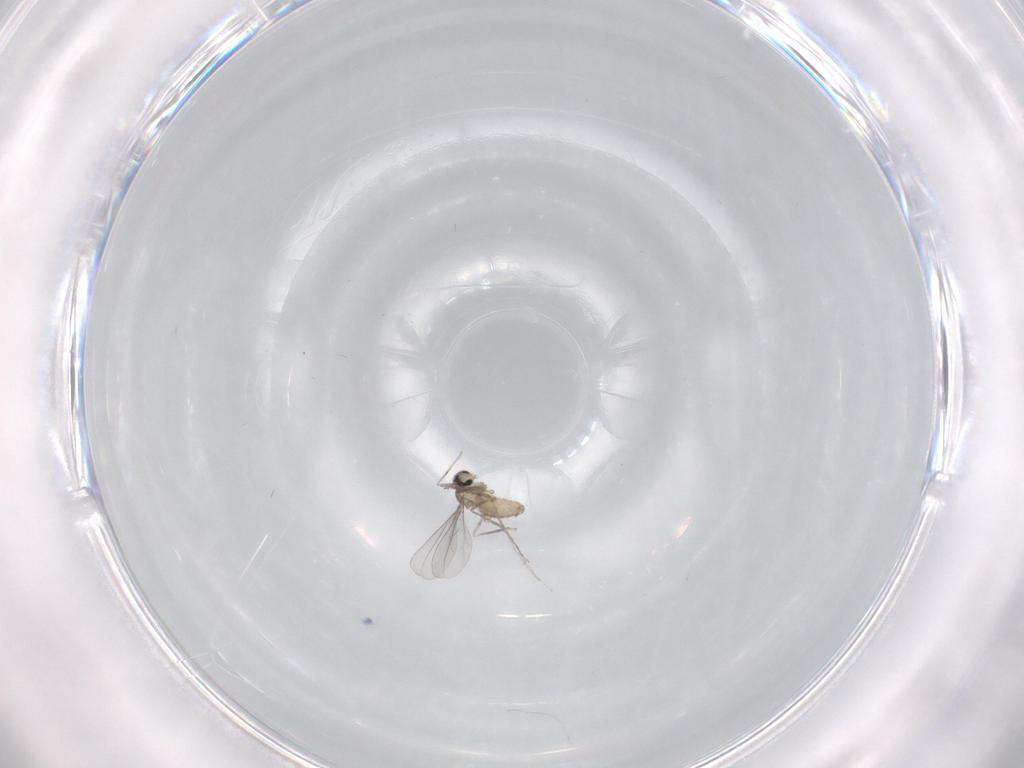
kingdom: Animalia
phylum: Arthropoda
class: Insecta
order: Diptera
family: Cecidomyiidae
